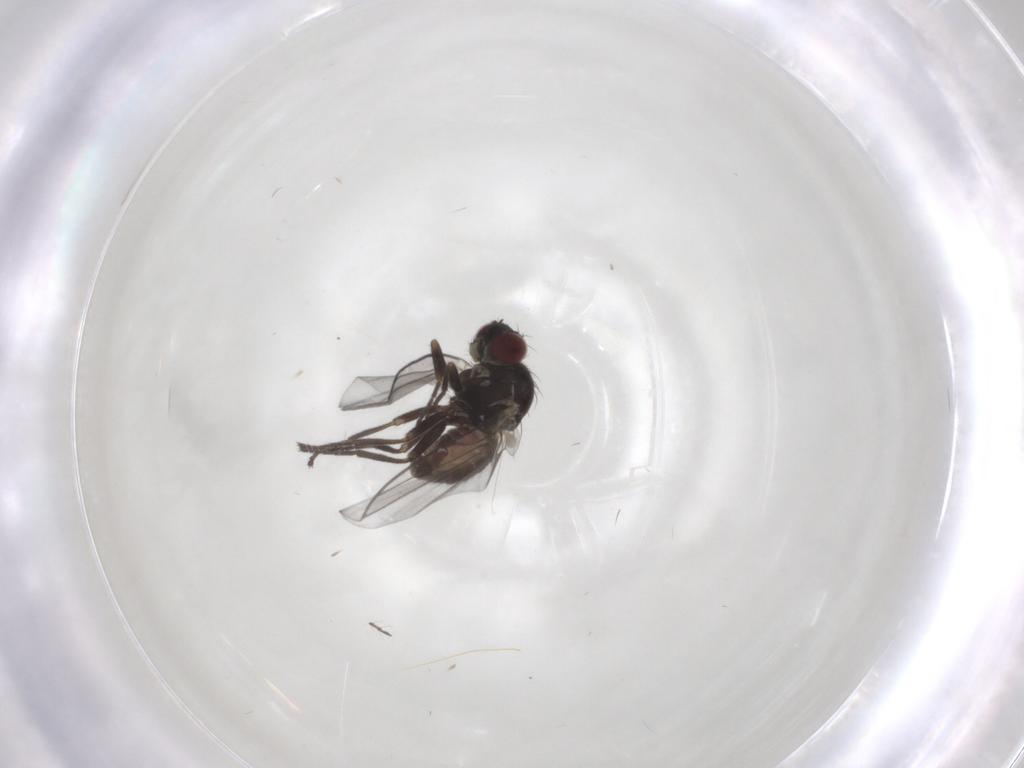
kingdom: Animalia
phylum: Arthropoda
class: Insecta
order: Diptera
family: Agromyzidae
